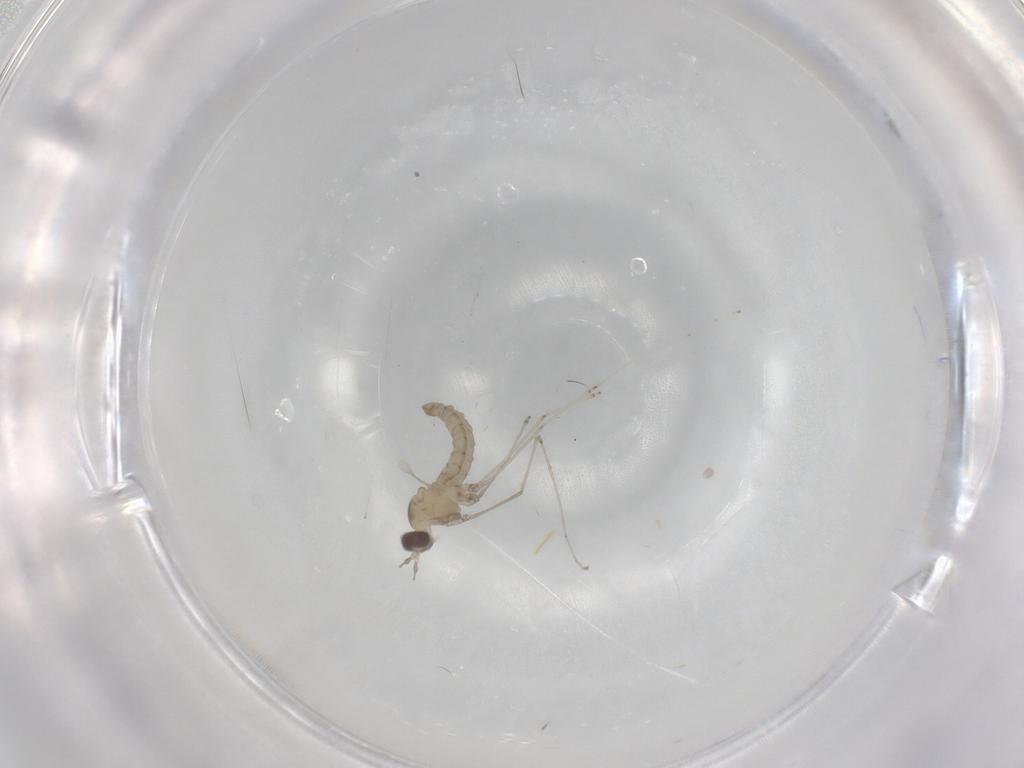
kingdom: Animalia
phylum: Arthropoda
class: Insecta
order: Diptera
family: Cecidomyiidae
